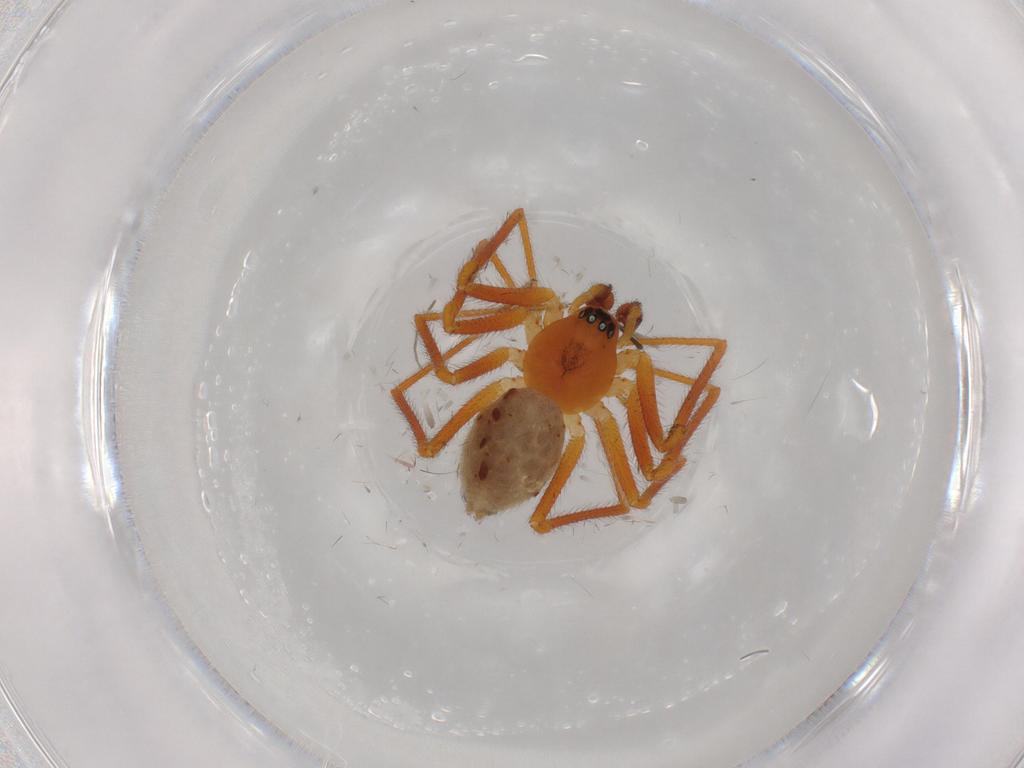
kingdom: Animalia
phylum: Arthropoda
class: Arachnida
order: Araneae
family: Linyphiidae
